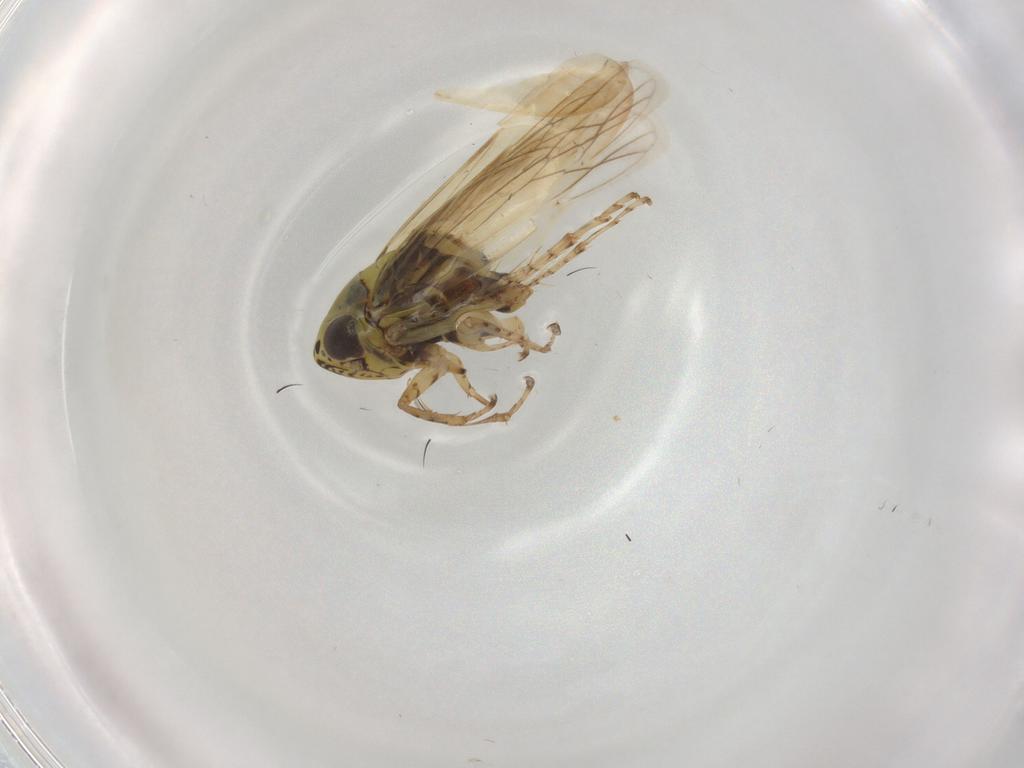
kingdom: Animalia
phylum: Arthropoda
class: Insecta
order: Hemiptera
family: Cicadellidae
